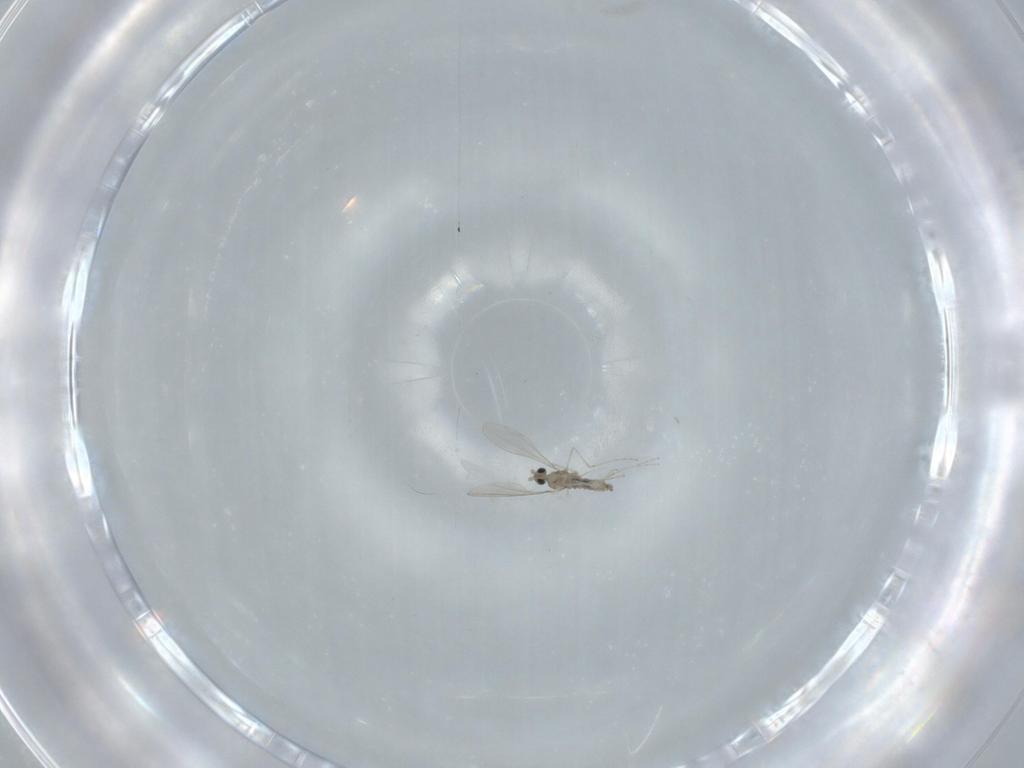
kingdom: Animalia
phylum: Arthropoda
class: Insecta
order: Diptera
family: Cecidomyiidae
